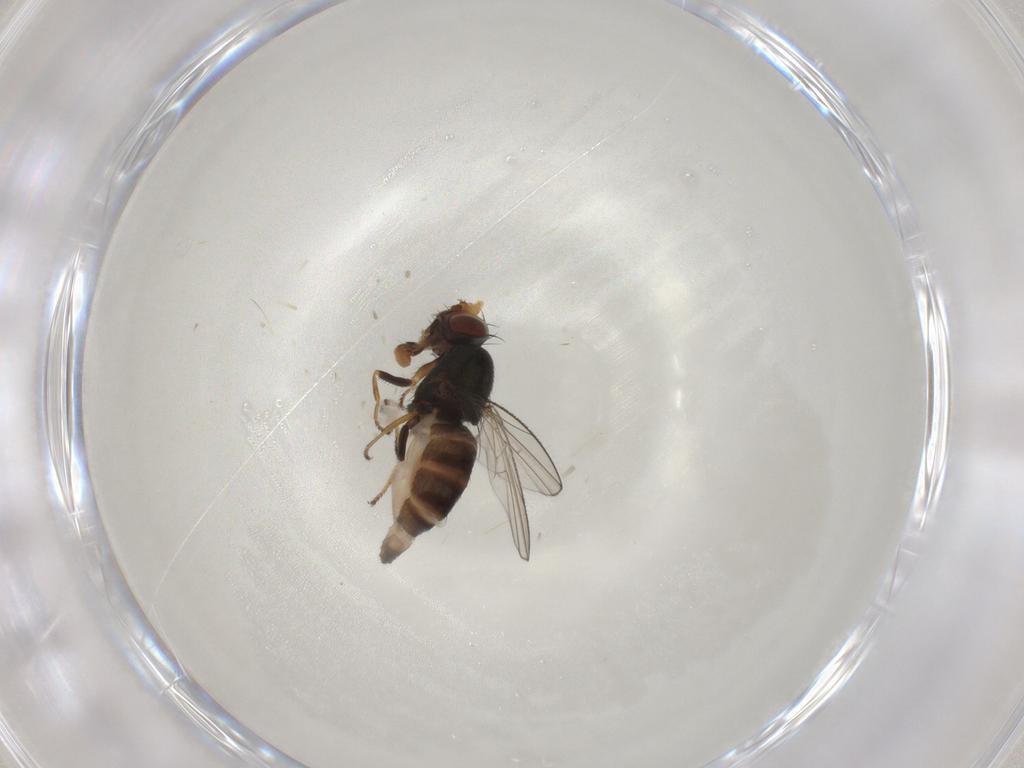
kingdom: Animalia
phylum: Arthropoda
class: Insecta
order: Diptera
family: Ephydridae
